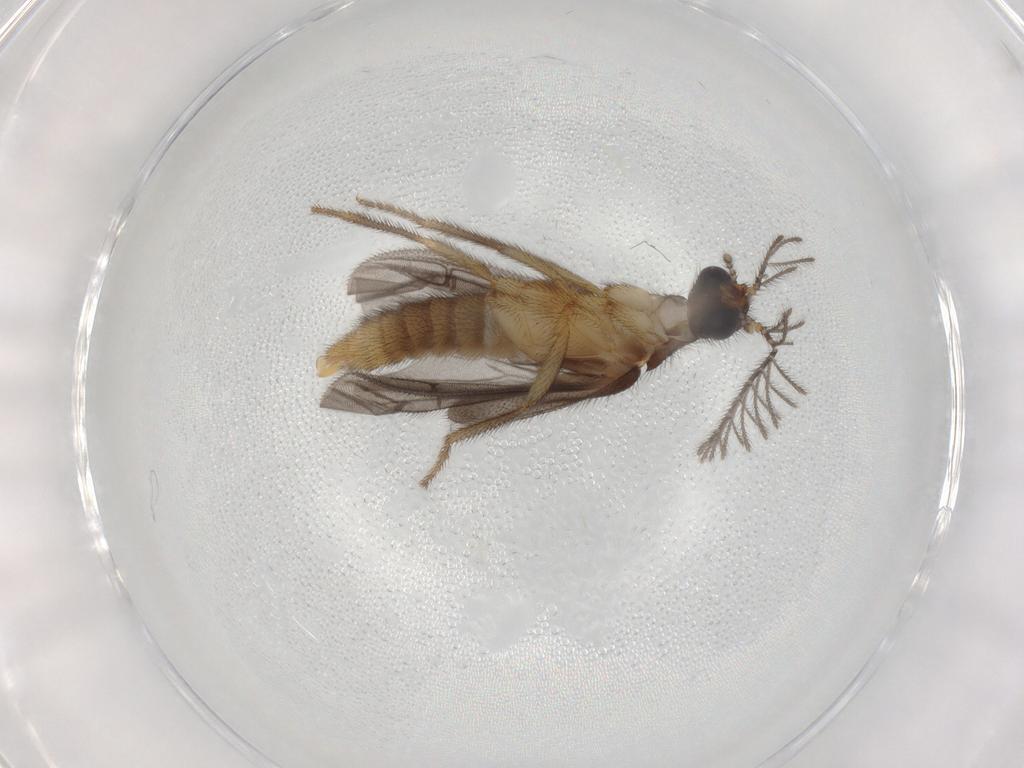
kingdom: Animalia
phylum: Arthropoda
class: Insecta
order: Coleoptera
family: Phengodidae
